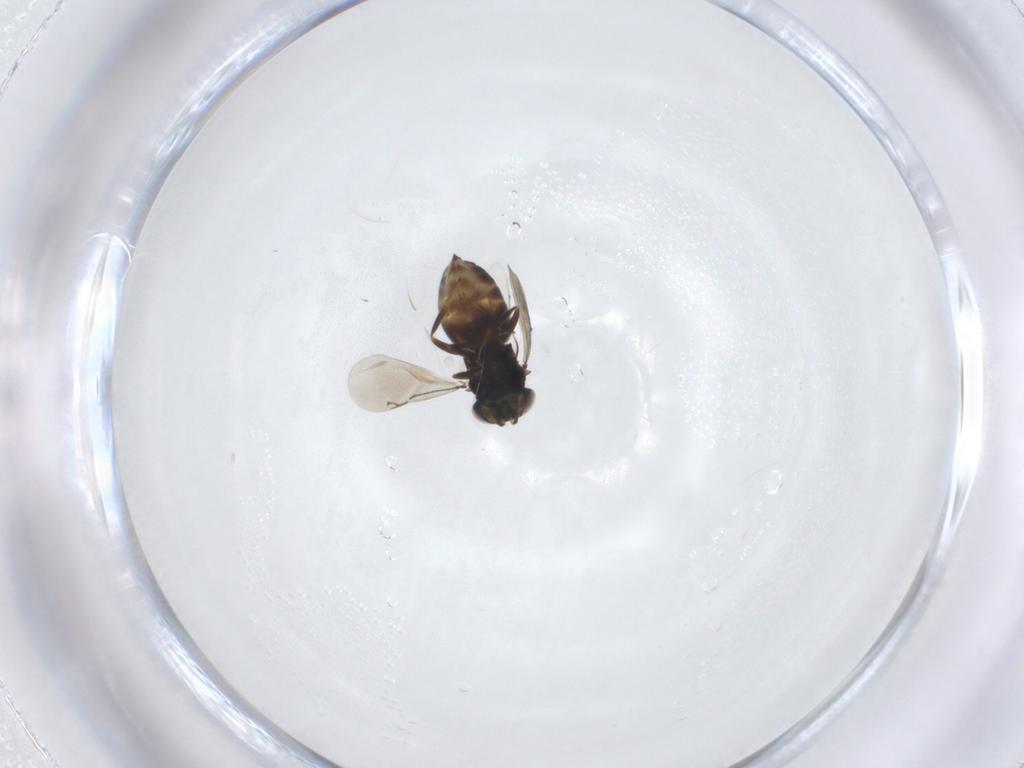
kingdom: Animalia
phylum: Arthropoda
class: Insecta
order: Hymenoptera
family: Eunotidae
